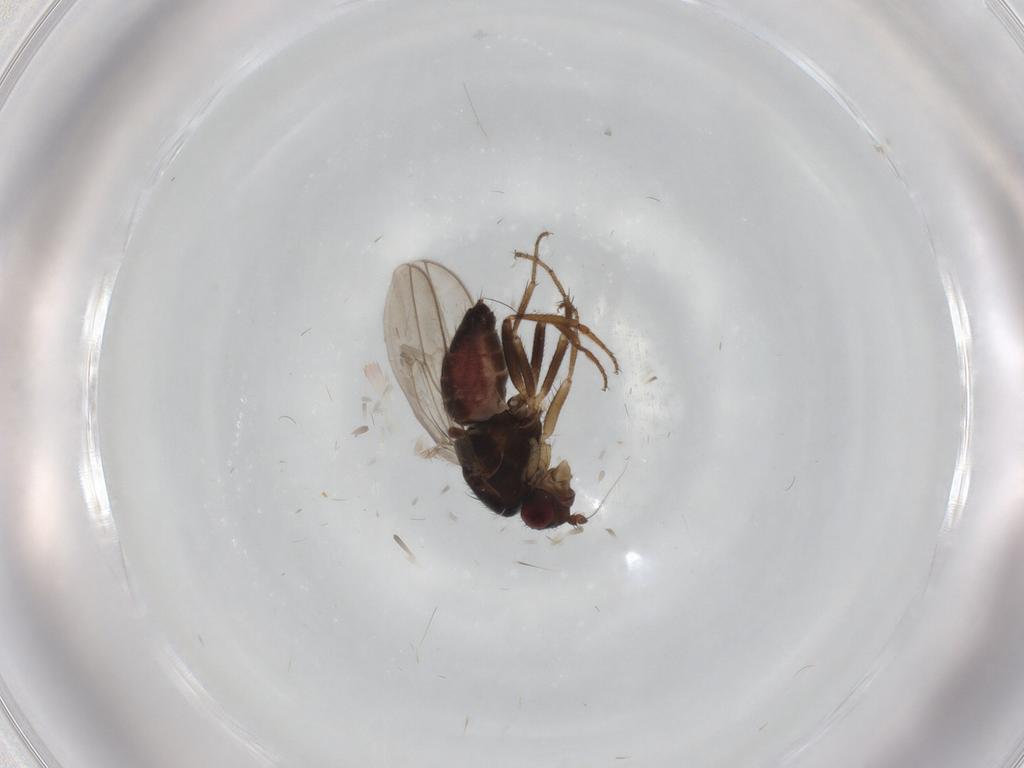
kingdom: Animalia
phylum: Arthropoda
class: Insecta
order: Diptera
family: Sphaeroceridae
